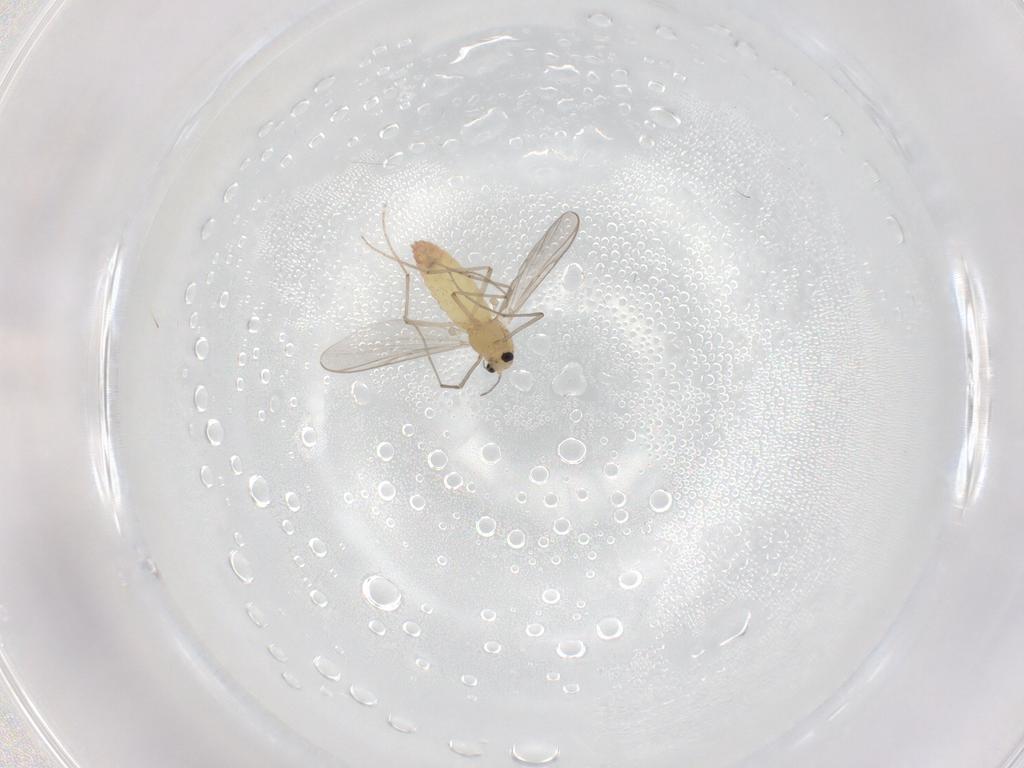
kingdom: Animalia
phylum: Arthropoda
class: Insecta
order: Diptera
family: Chironomidae
